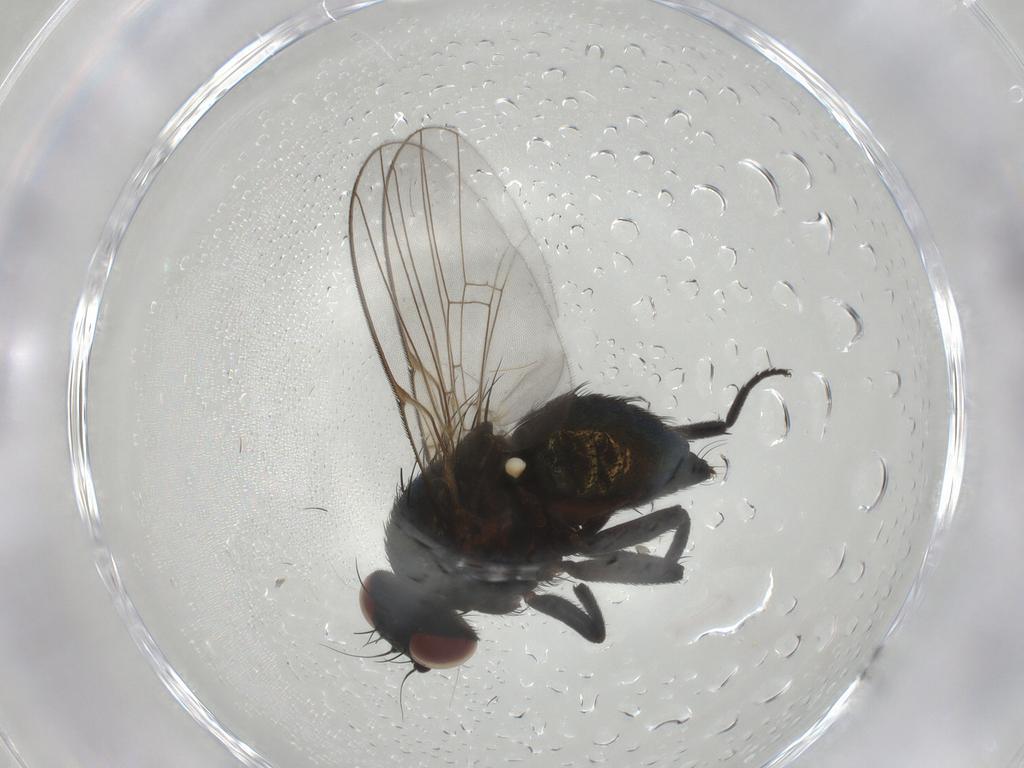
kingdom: Animalia
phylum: Arthropoda
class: Insecta
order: Diptera
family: Agromyzidae
